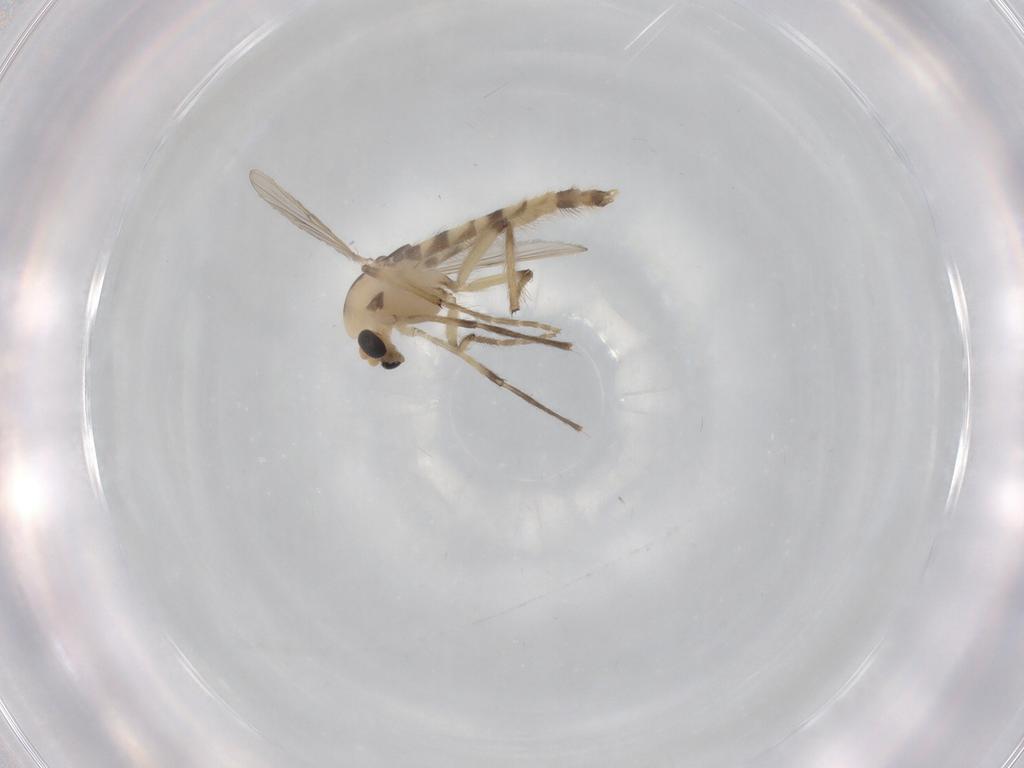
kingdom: Animalia
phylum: Arthropoda
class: Insecta
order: Diptera
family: Chironomidae
